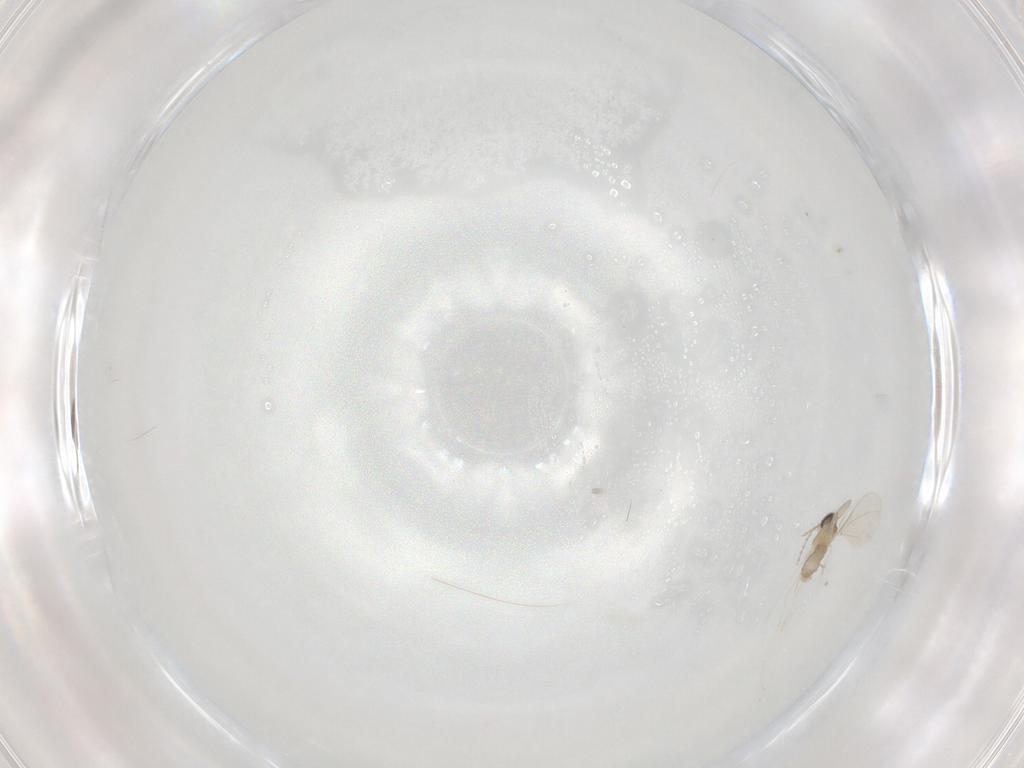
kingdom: Animalia
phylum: Arthropoda
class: Insecta
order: Diptera
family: Cecidomyiidae
